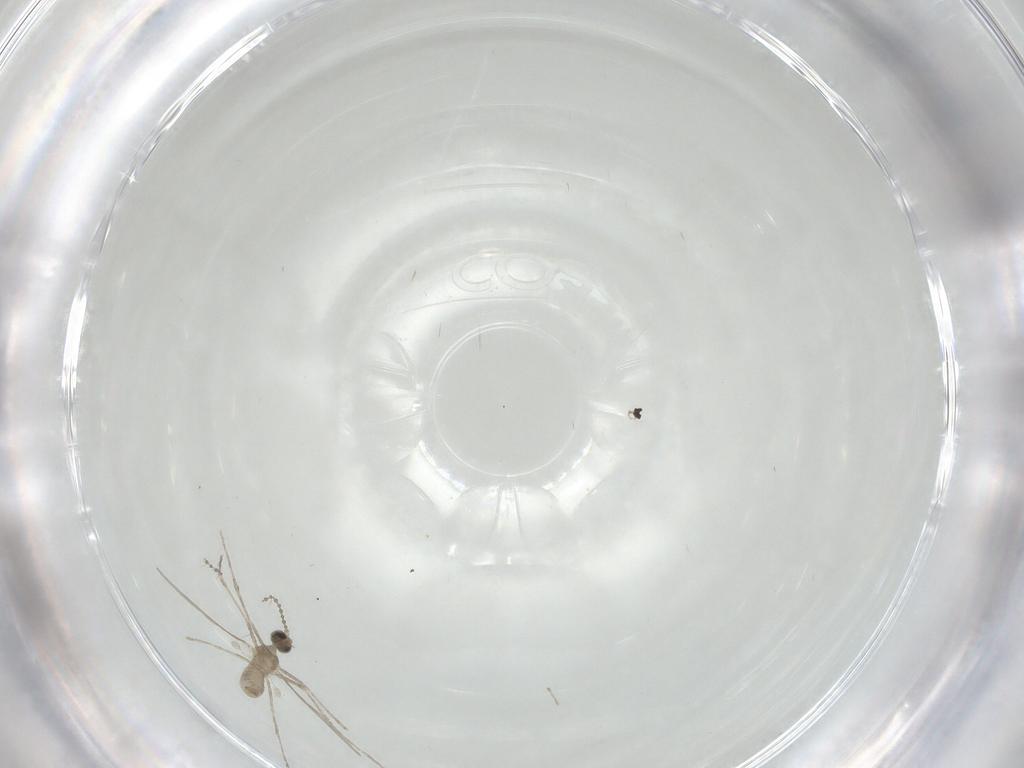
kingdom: Animalia
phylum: Arthropoda
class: Insecta
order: Diptera
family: Cecidomyiidae
